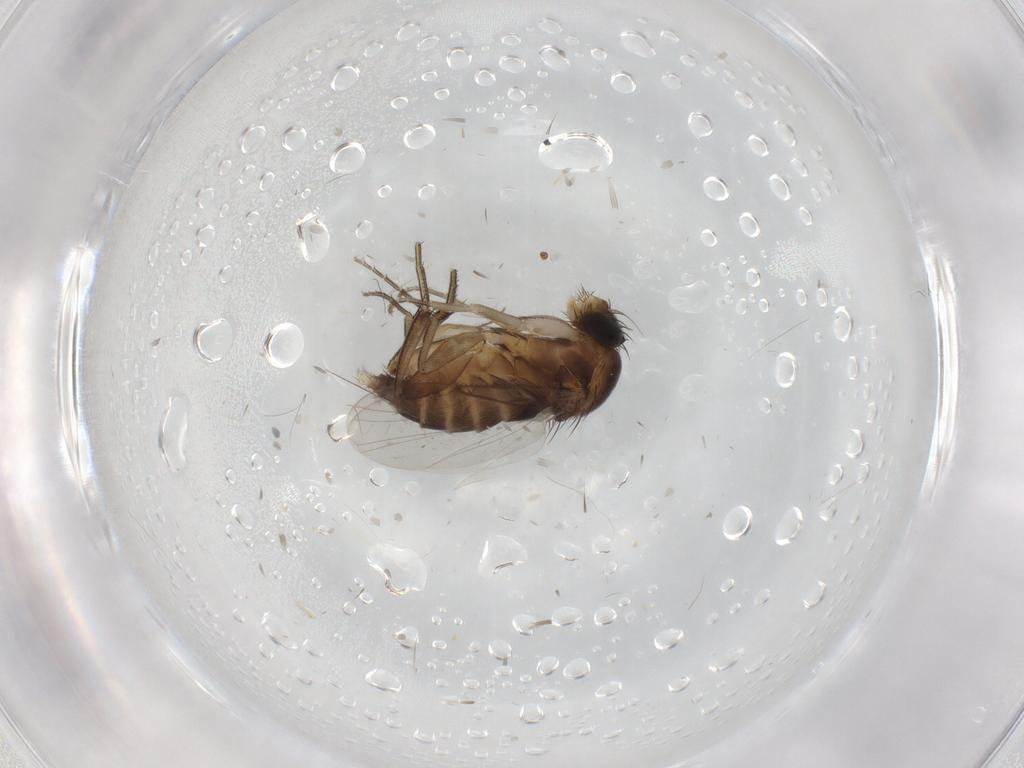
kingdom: Animalia
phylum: Arthropoda
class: Insecta
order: Diptera
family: Phoridae
